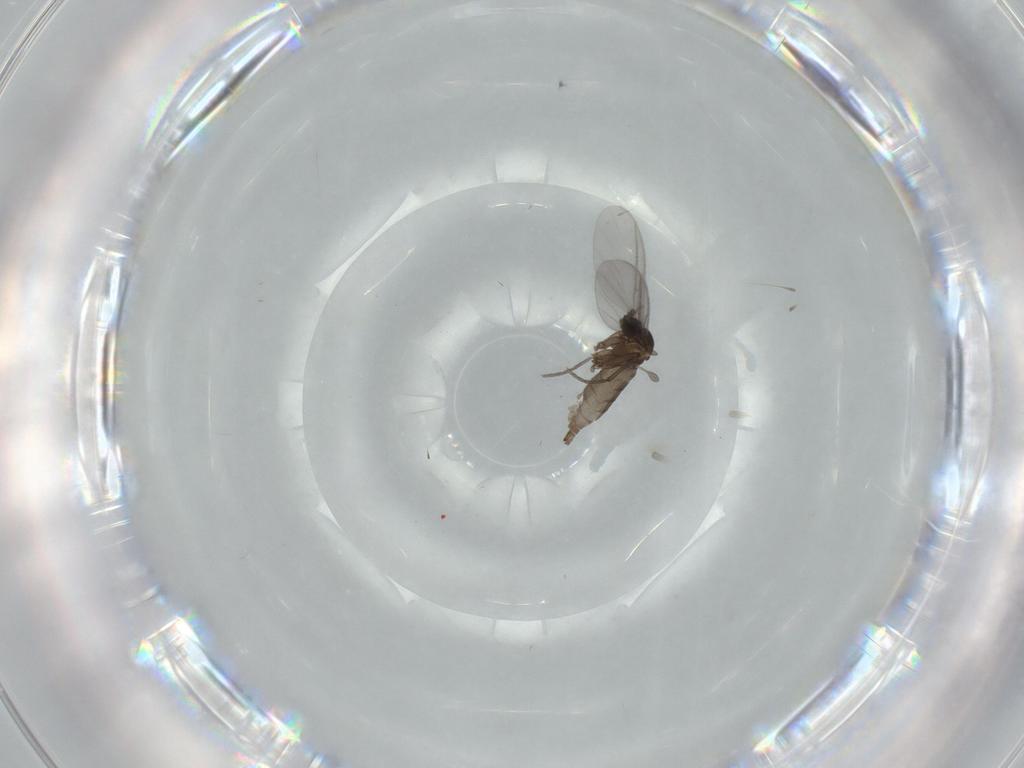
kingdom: Animalia
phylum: Arthropoda
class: Insecta
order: Diptera
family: Sciaridae
